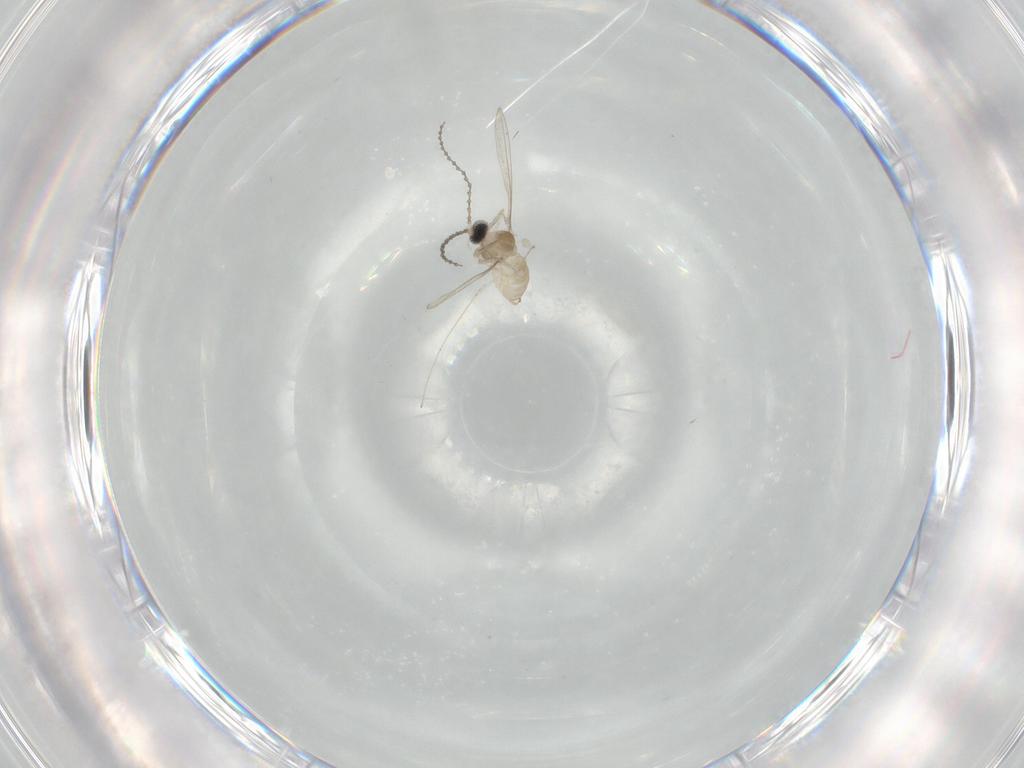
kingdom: Animalia
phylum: Arthropoda
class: Insecta
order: Diptera
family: Cecidomyiidae
